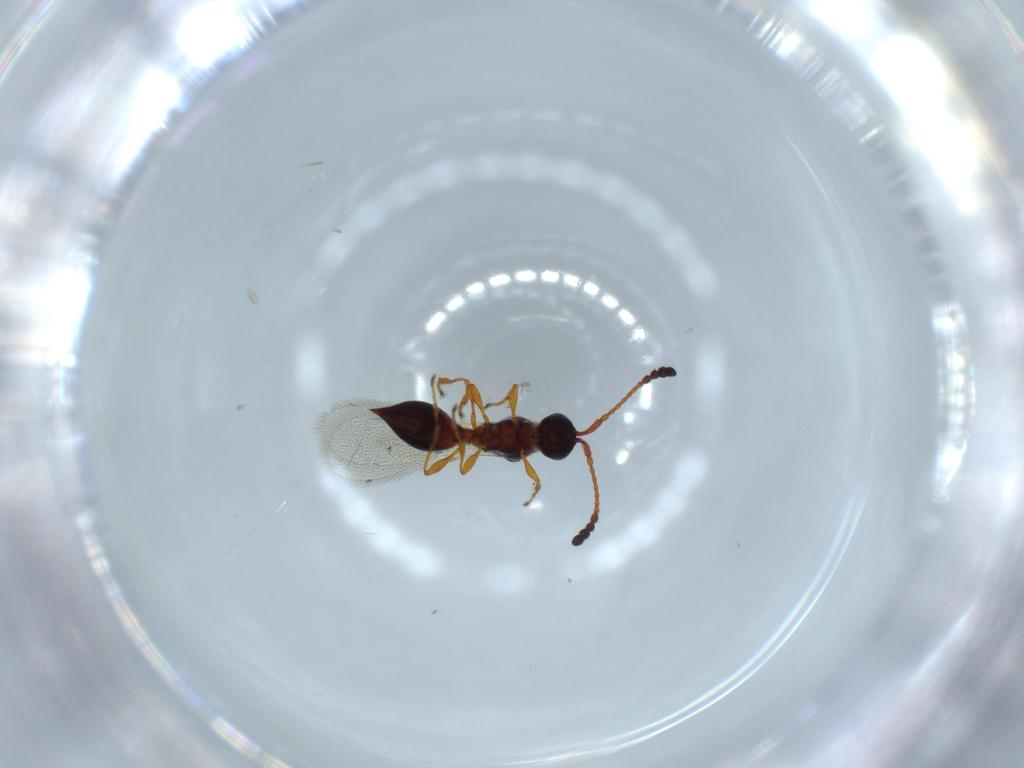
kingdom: Animalia
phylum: Arthropoda
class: Insecta
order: Hymenoptera
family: Diapriidae
